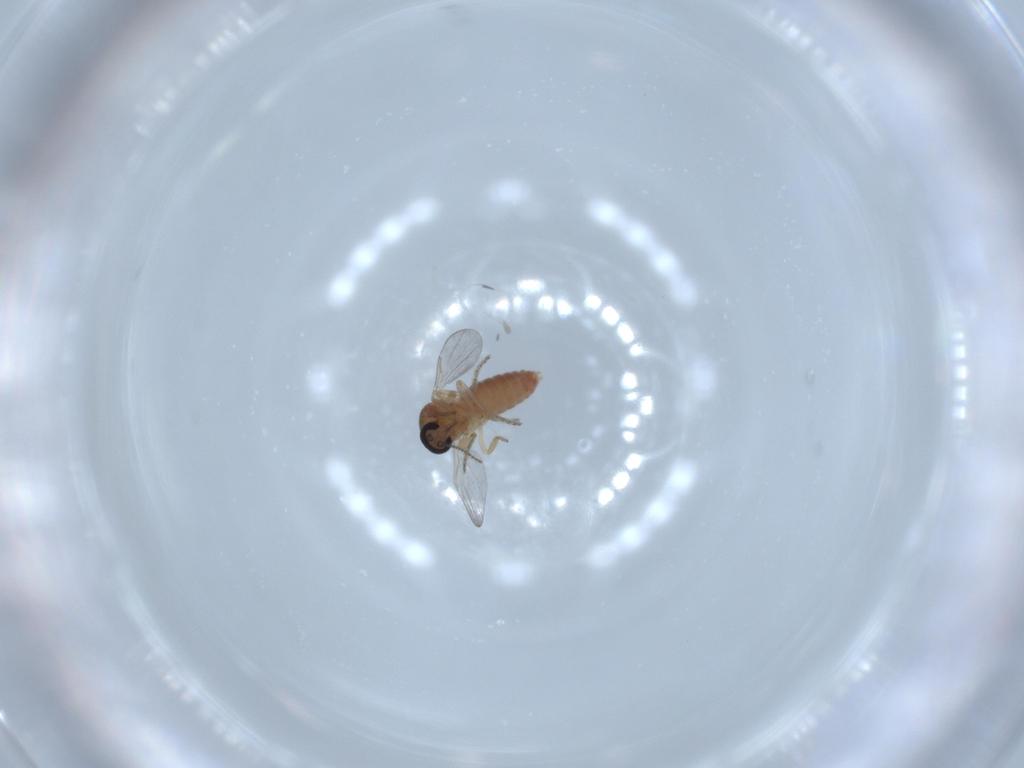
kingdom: Animalia
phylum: Arthropoda
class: Insecta
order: Diptera
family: Ceratopogonidae
